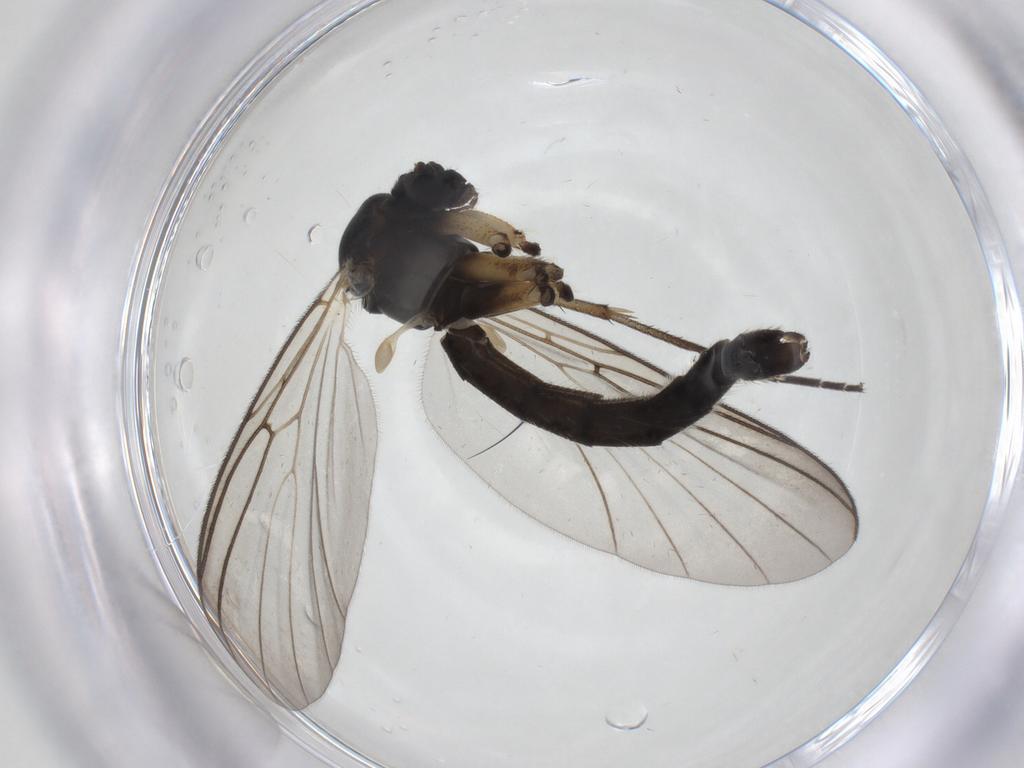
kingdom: Animalia
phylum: Arthropoda
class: Insecta
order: Diptera
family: Mycetophilidae
